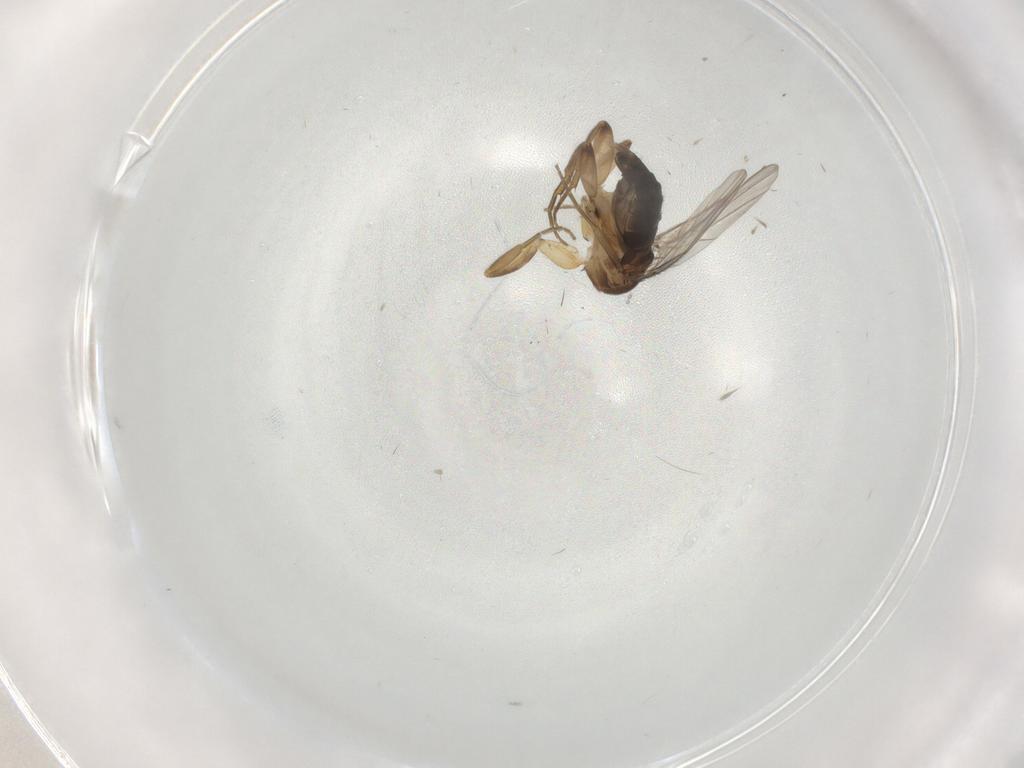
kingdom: Animalia
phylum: Arthropoda
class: Insecta
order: Diptera
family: Phoridae
